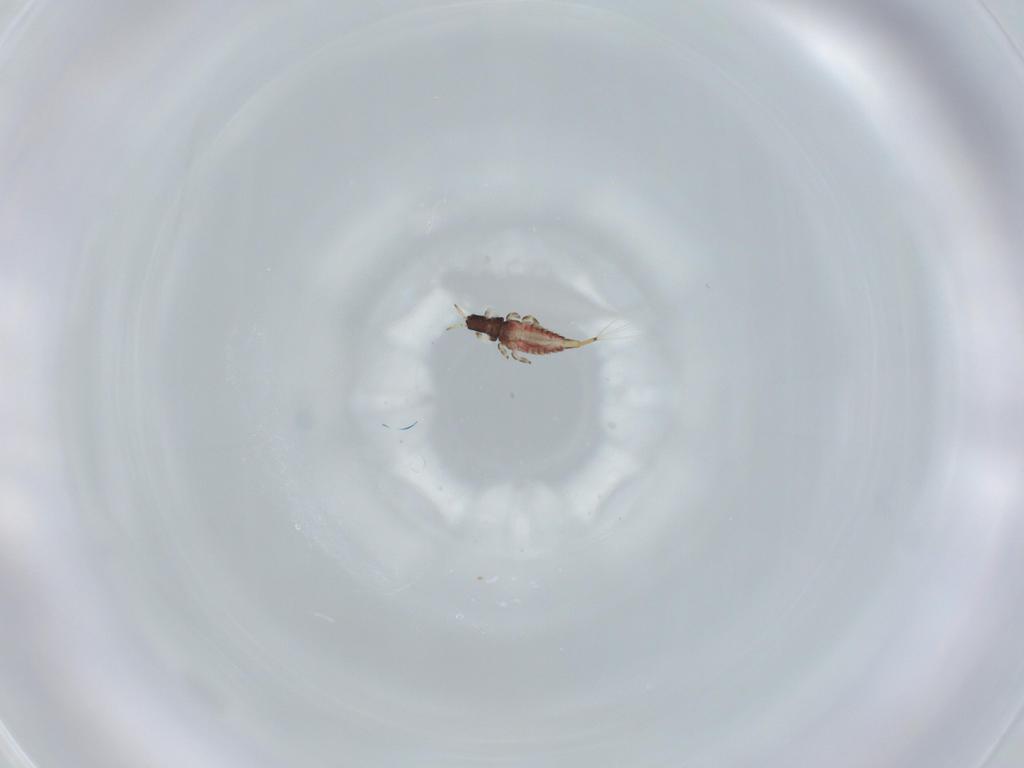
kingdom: Animalia
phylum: Arthropoda
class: Insecta
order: Thysanoptera
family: Phlaeothripidae
